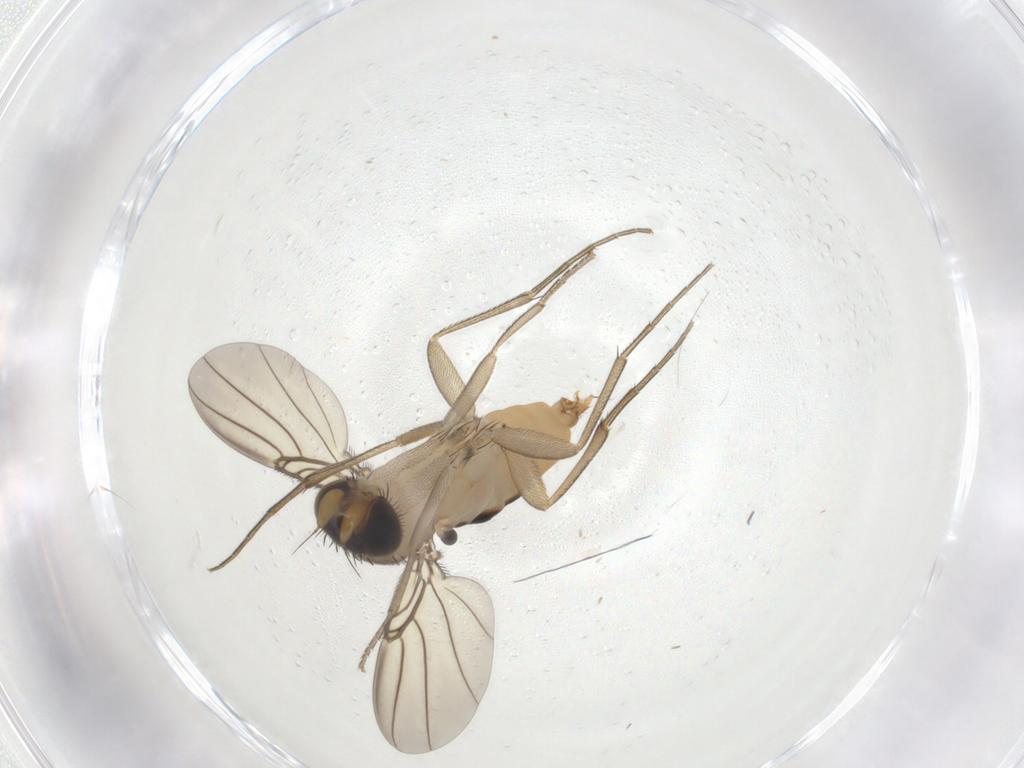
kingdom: Animalia
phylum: Arthropoda
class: Insecta
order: Diptera
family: Phoridae
